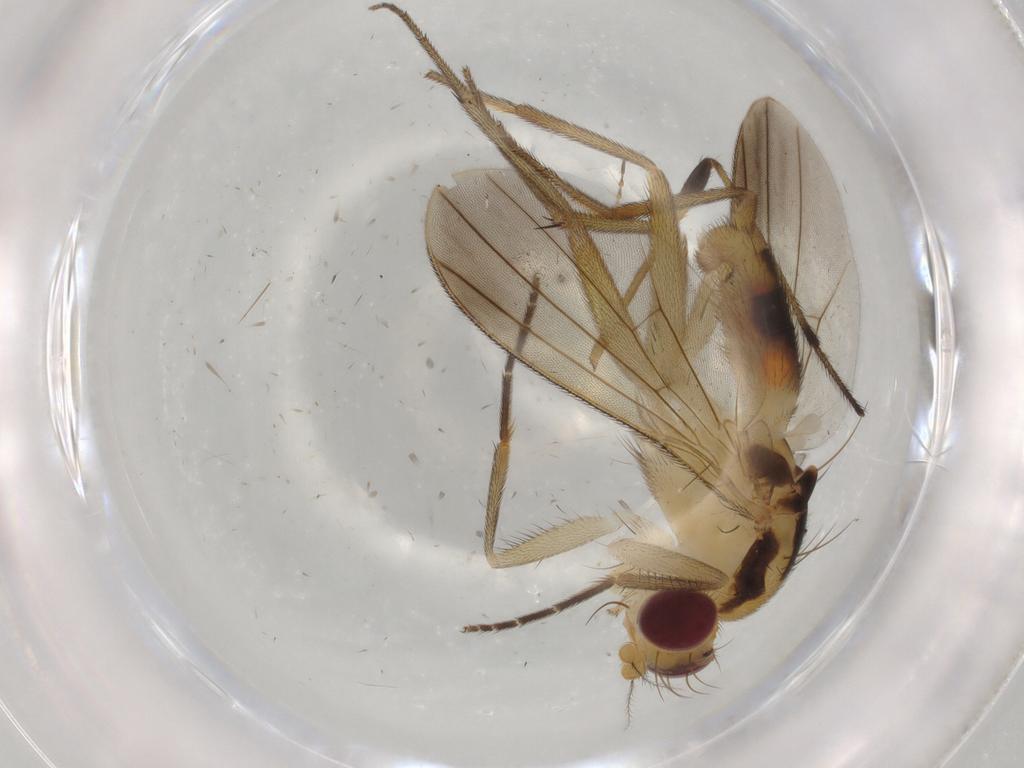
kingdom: Animalia
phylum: Arthropoda
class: Insecta
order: Diptera
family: Clusiidae
